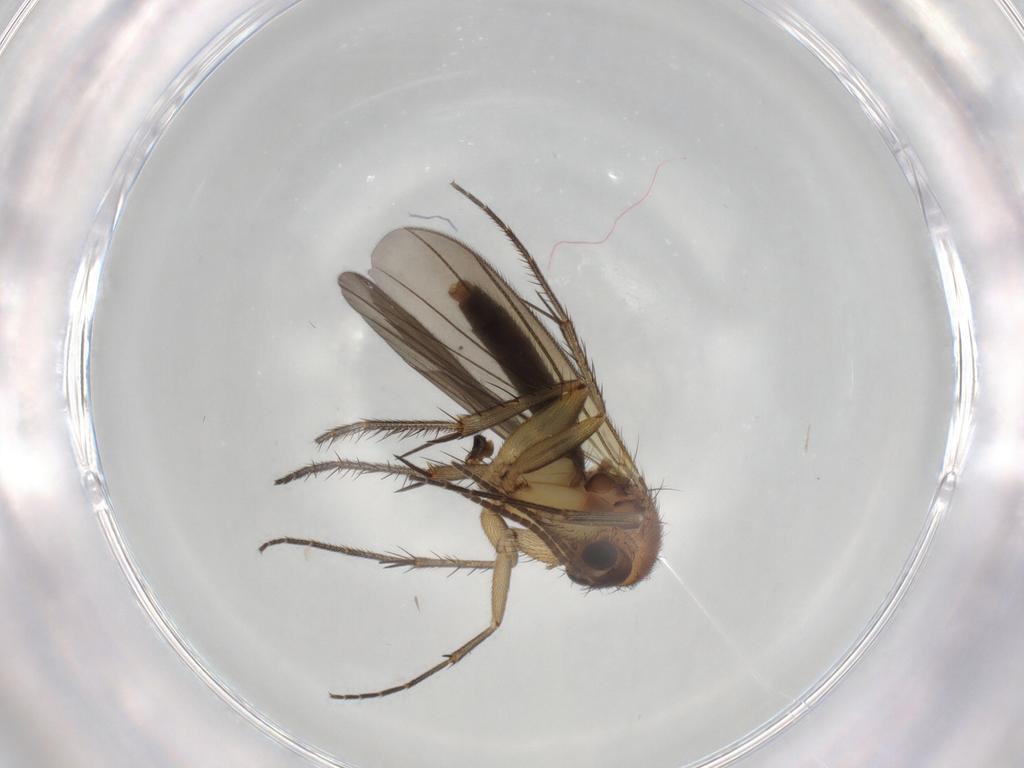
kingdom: Animalia
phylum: Arthropoda
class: Insecta
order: Diptera
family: Mycetophilidae
